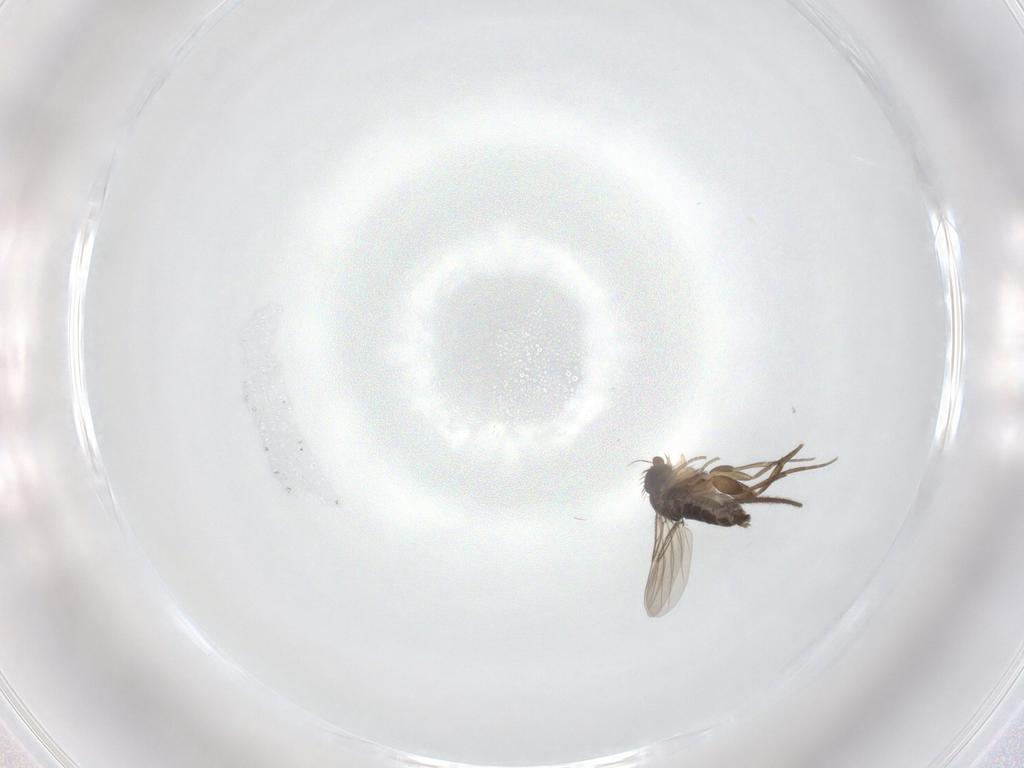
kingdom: Animalia
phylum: Arthropoda
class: Insecta
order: Diptera
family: Phoridae
